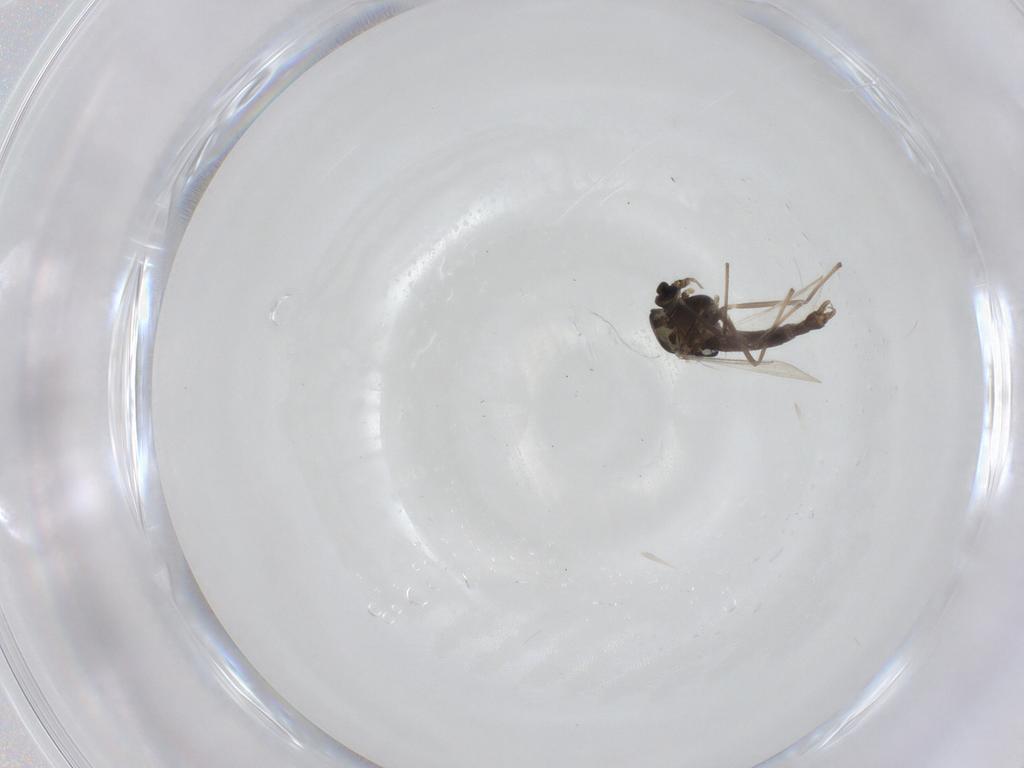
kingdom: Animalia
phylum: Arthropoda
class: Insecta
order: Diptera
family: Chironomidae
